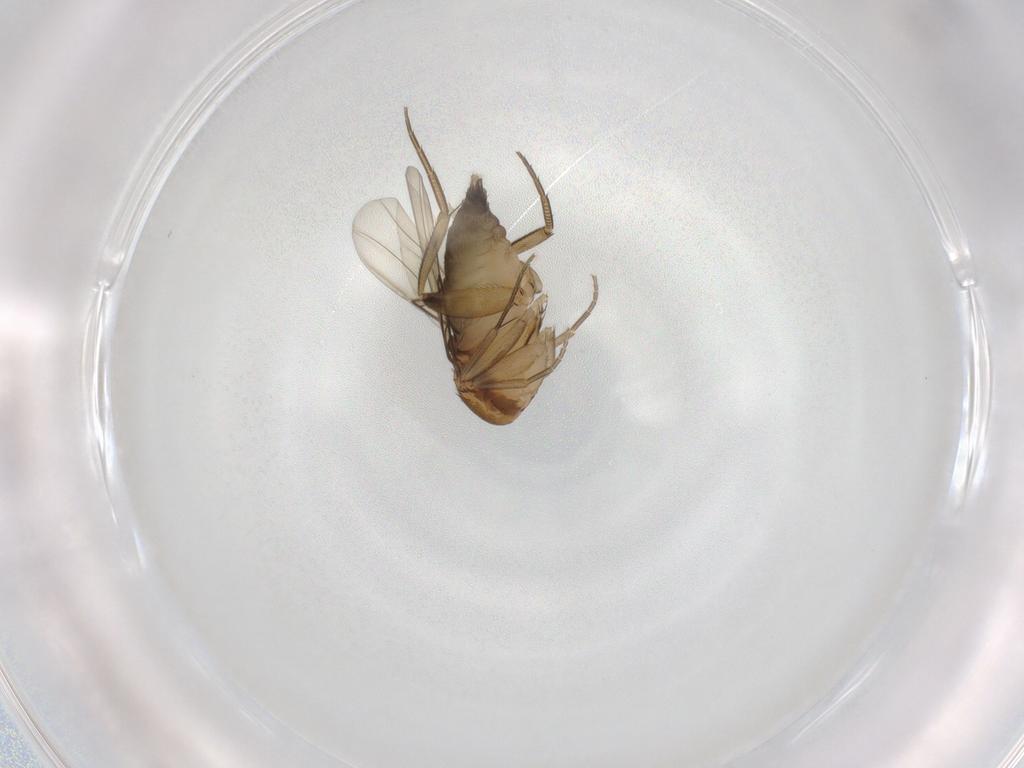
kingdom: Animalia
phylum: Arthropoda
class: Insecta
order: Diptera
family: Phoridae
